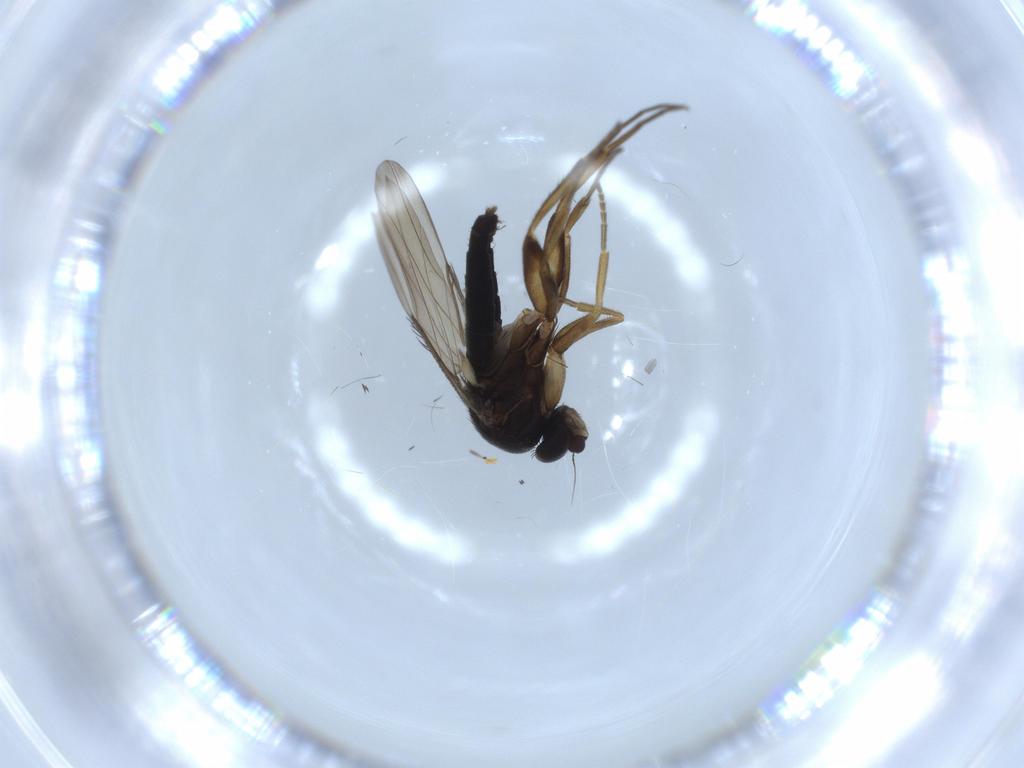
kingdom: Animalia
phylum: Arthropoda
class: Insecta
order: Diptera
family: Phoridae
